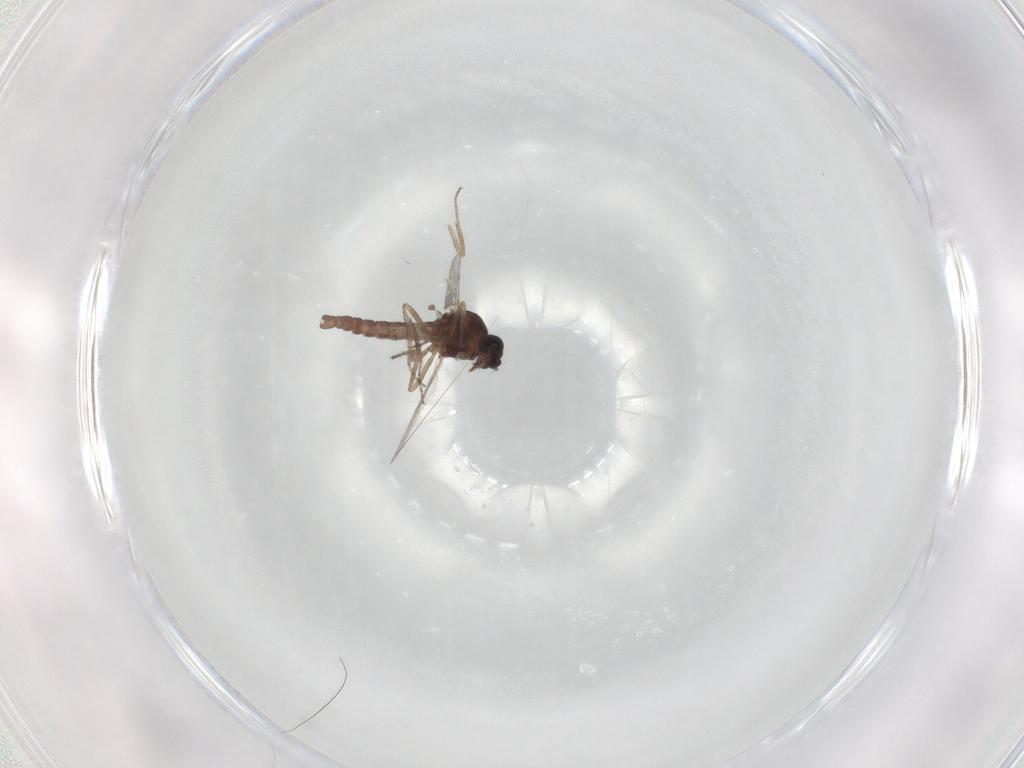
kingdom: Animalia
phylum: Arthropoda
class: Insecta
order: Diptera
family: Ceratopogonidae
